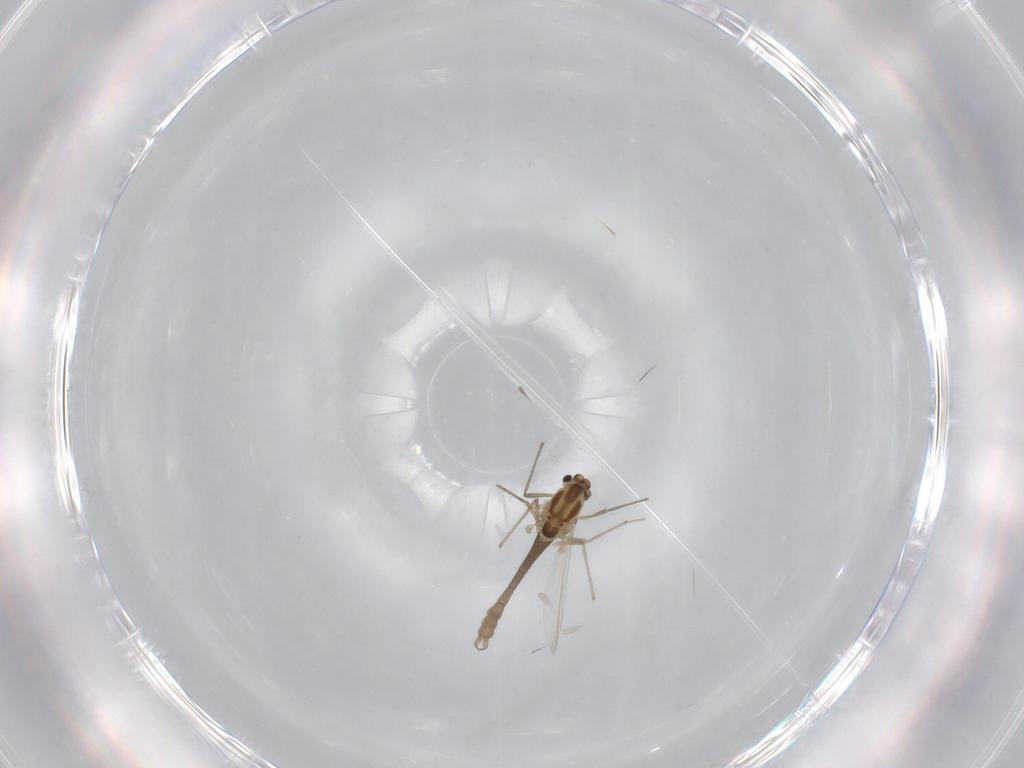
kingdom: Animalia
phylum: Arthropoda
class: Insecta
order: Diptera
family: Sciaridae
